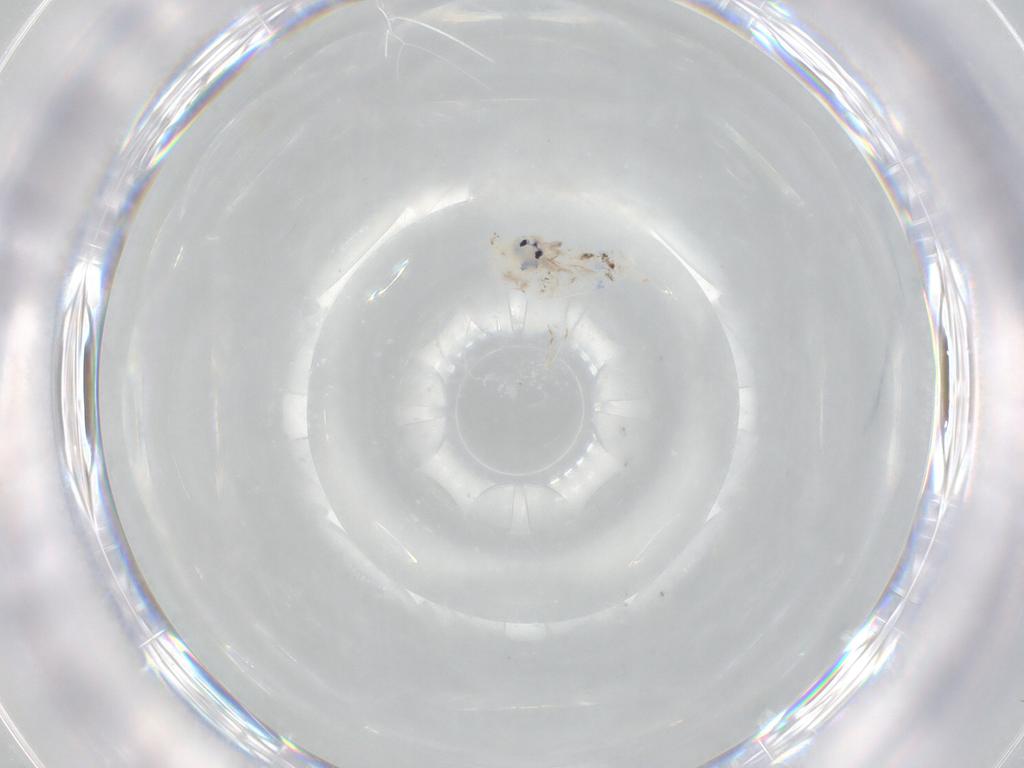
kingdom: Animalia
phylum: Arthropoda
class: Collembola
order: Entomobryomorpha
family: Entomobryidae
